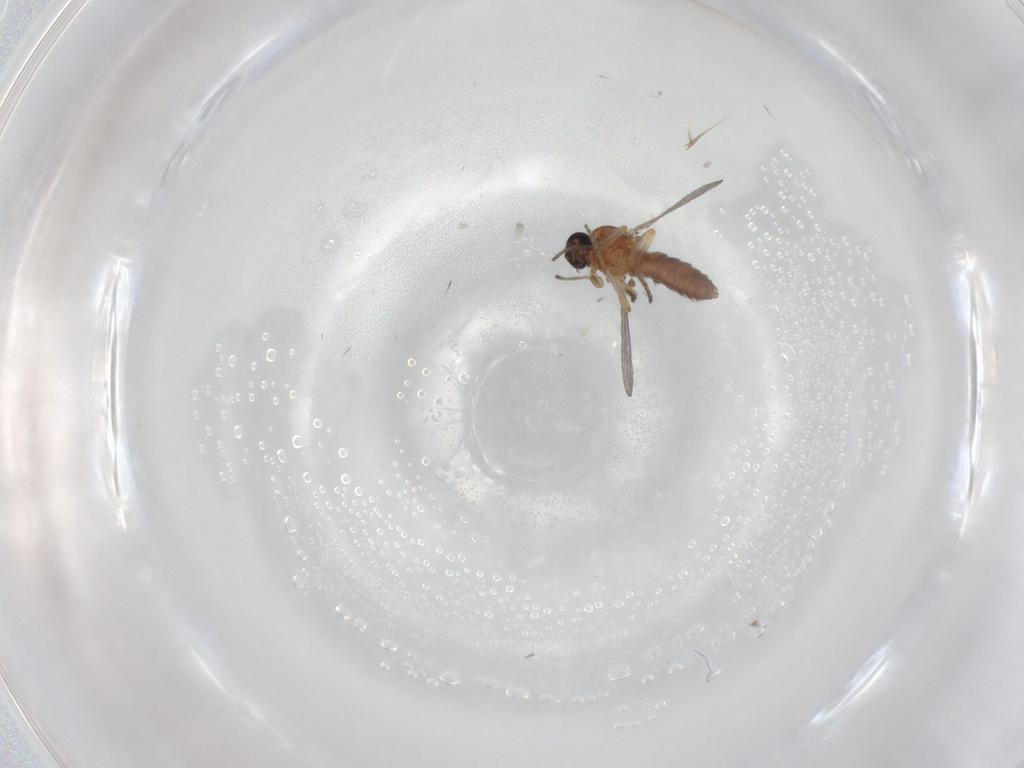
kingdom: Animalia
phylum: Arthropoda
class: Insecta
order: Diptera
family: Ceratopogonidae
